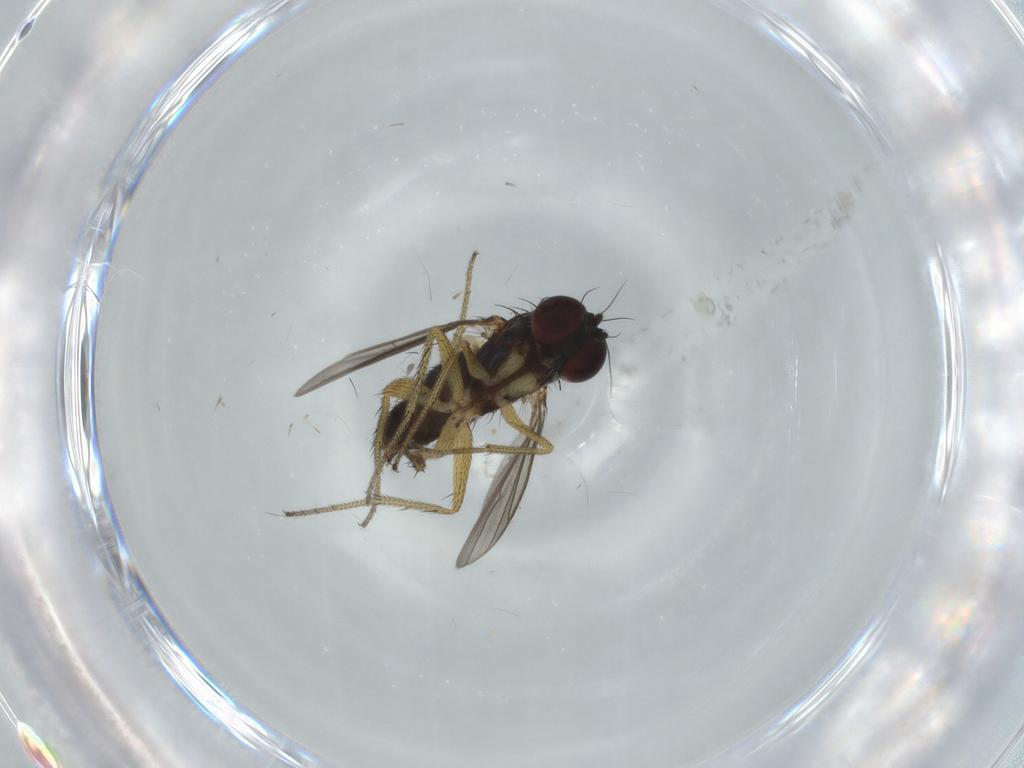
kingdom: Animalia
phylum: Arthropoda
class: Insecta
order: Diptera
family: Dolichopodidae
